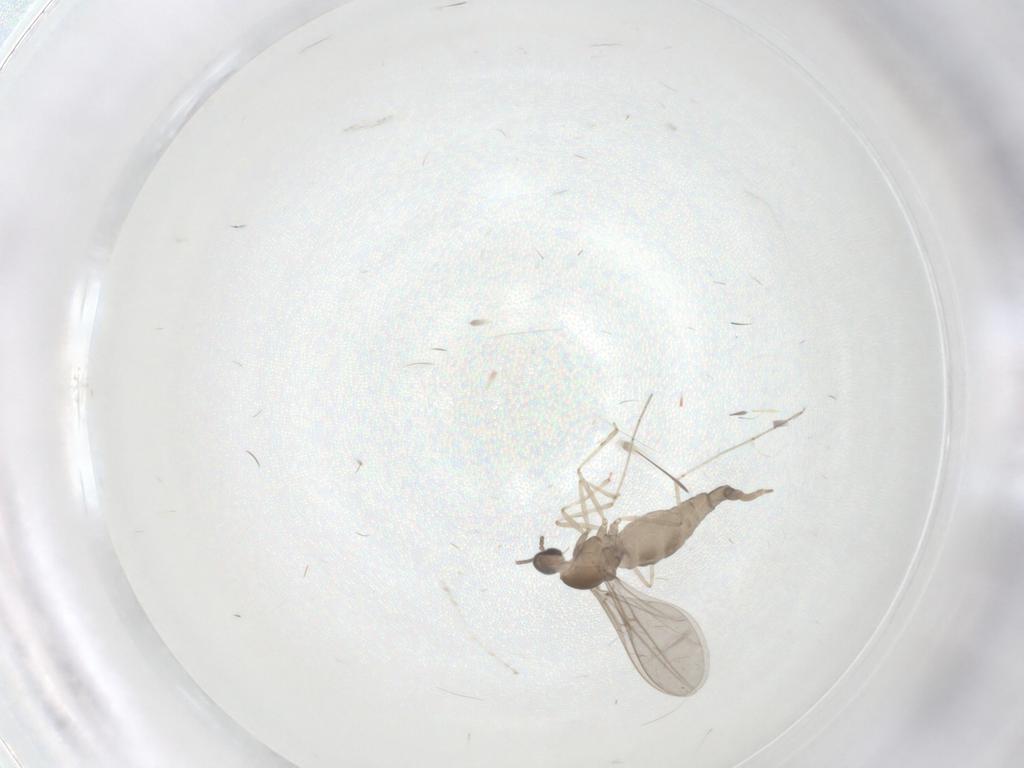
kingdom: Animalia
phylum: Arthropoda
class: Insecta
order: Diptera
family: Cecidomyiidae
